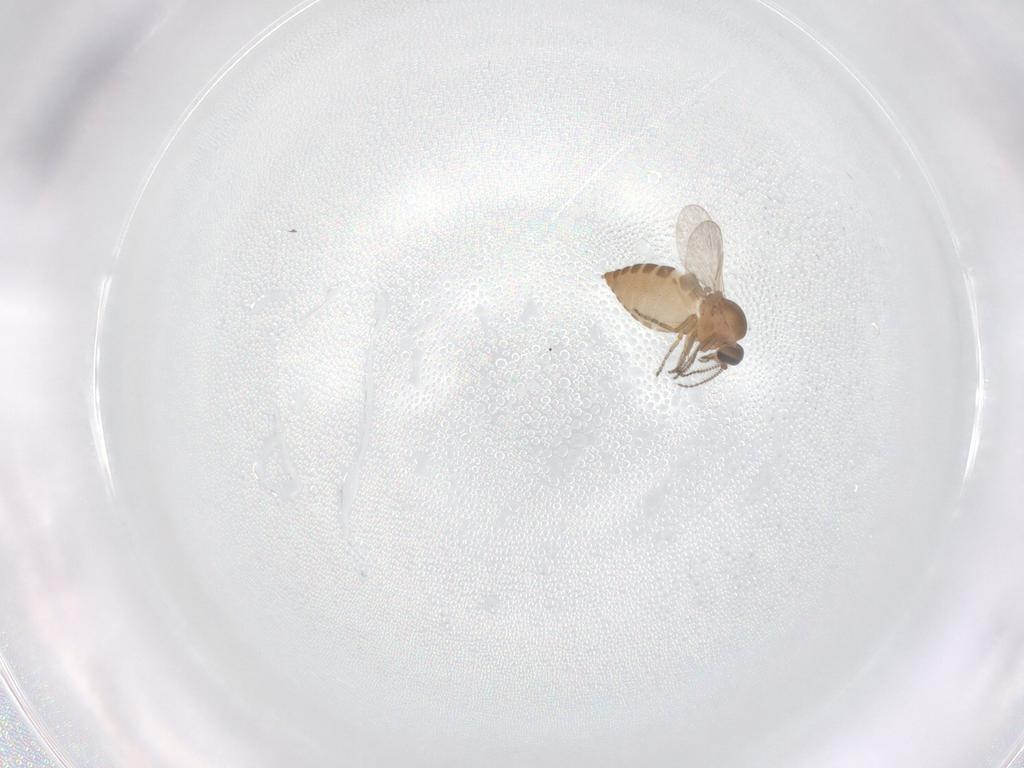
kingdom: Animalia
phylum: Arthropoda
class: Insecta
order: Diptera
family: Ceratopogonidae
